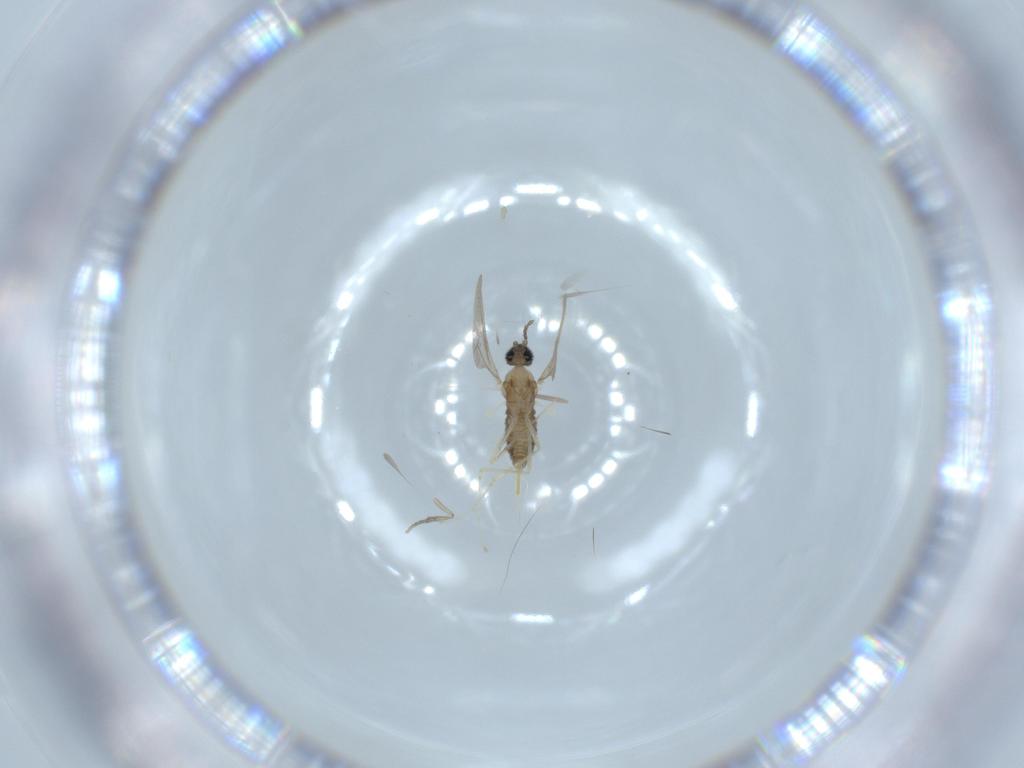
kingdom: Animalia
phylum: Arthropoda
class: Insecta
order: Diptera
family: Cecidomyiidae
